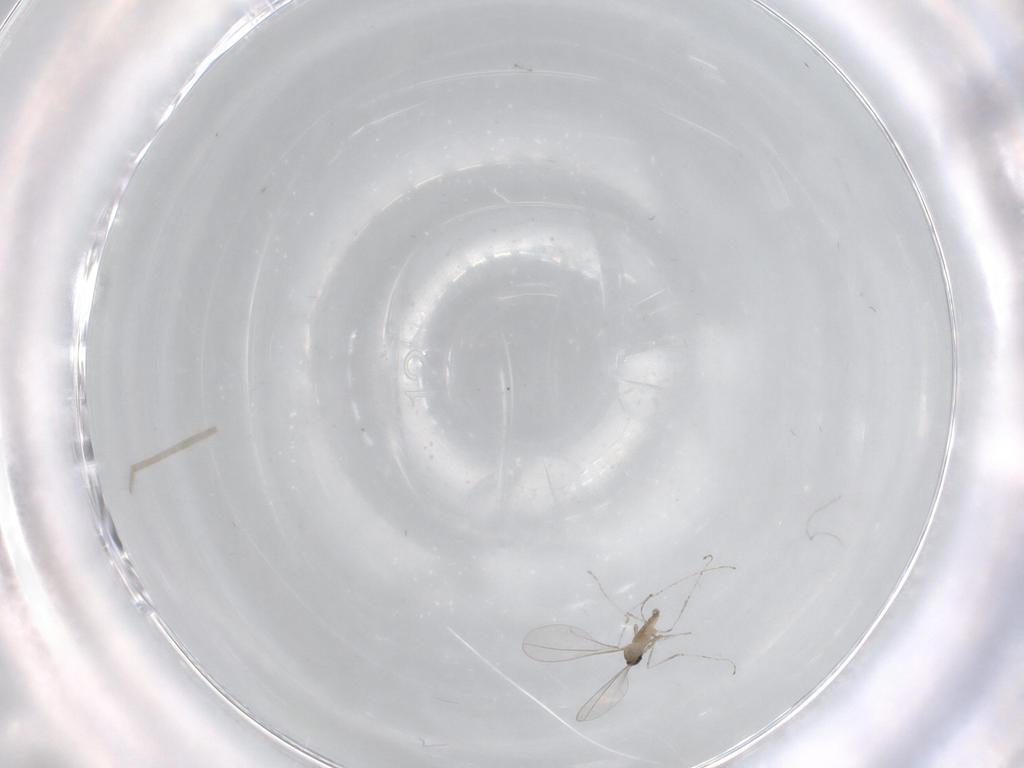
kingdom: Animalia
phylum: Arthropoda
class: Insecta
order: Diptera
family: Cecidomyiidae
